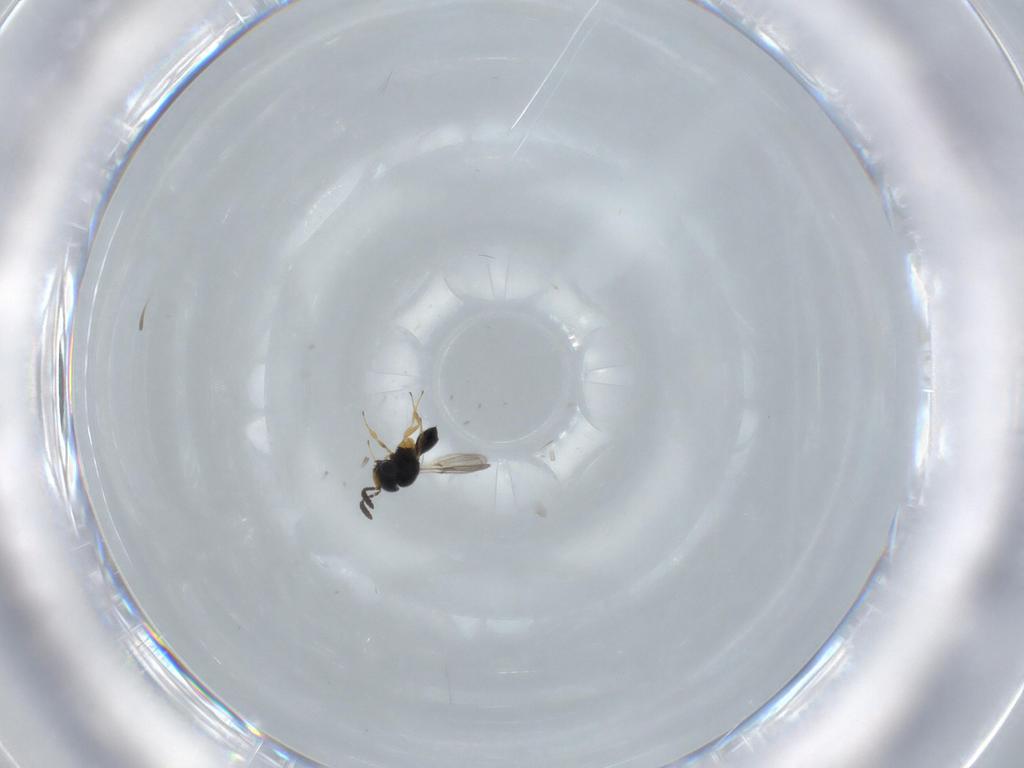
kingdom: Animalia
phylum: Arthropoda
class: Insecta
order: Hymenoptera
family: Scelionidae
